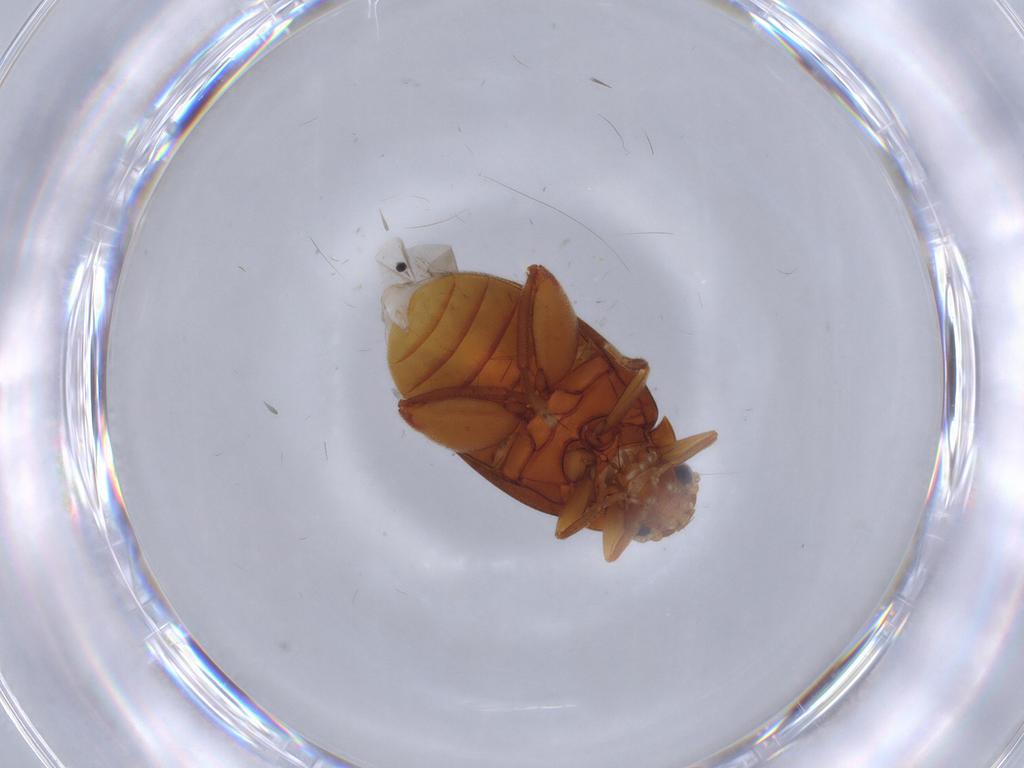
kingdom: Animalia
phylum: Arthropoda
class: Insecta
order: Coleoptera
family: Scirtidae
